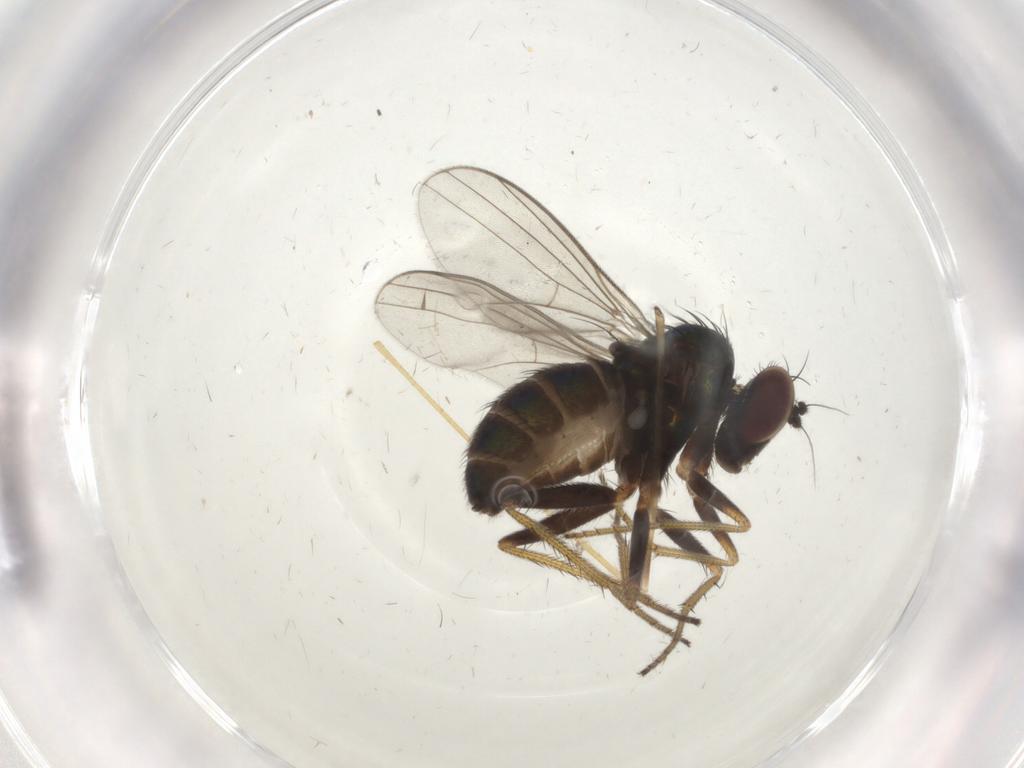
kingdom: Animalia
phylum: Arthropoda
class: Insecta
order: Diptera
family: Limoniidae
